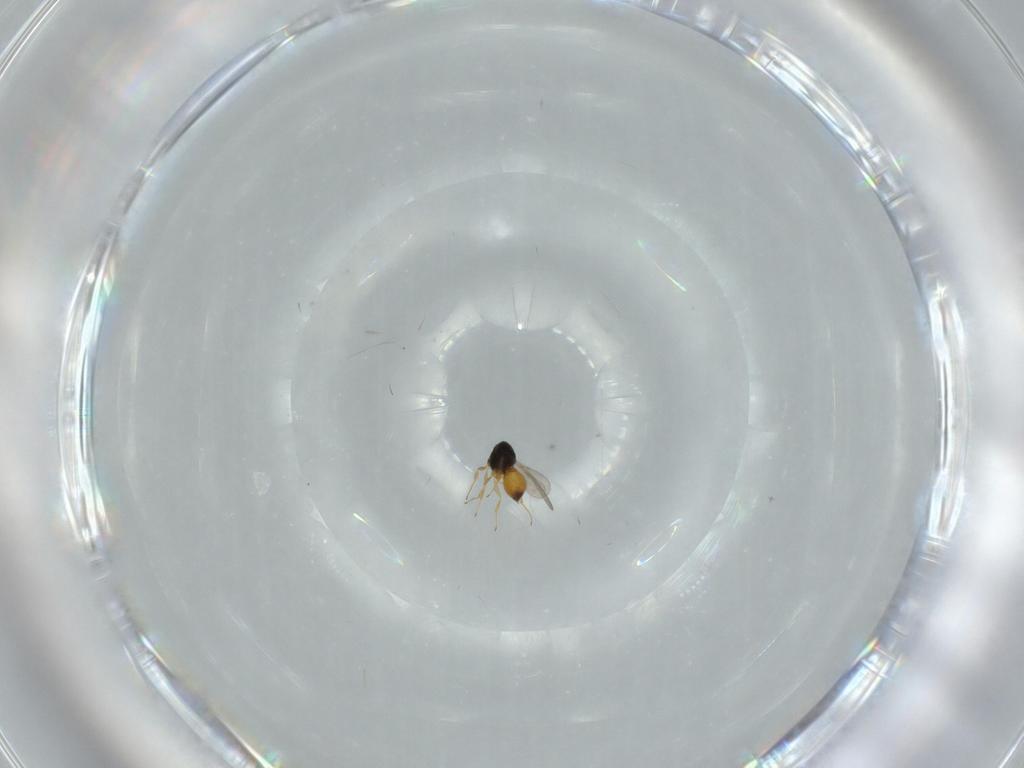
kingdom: Animalia
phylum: Arthropoda
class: Insecta
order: Hymenoptera
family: Scelionidae
